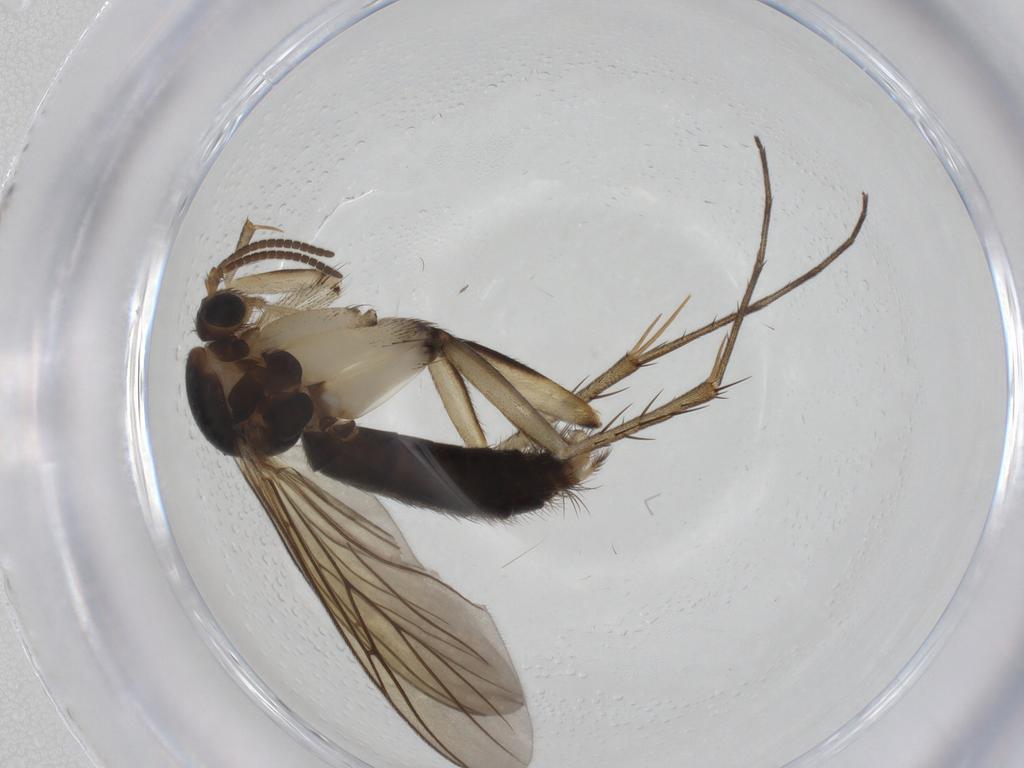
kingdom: Animalia
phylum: Arthropoda
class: Insecta
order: Diptera
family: Mycetophilidae
